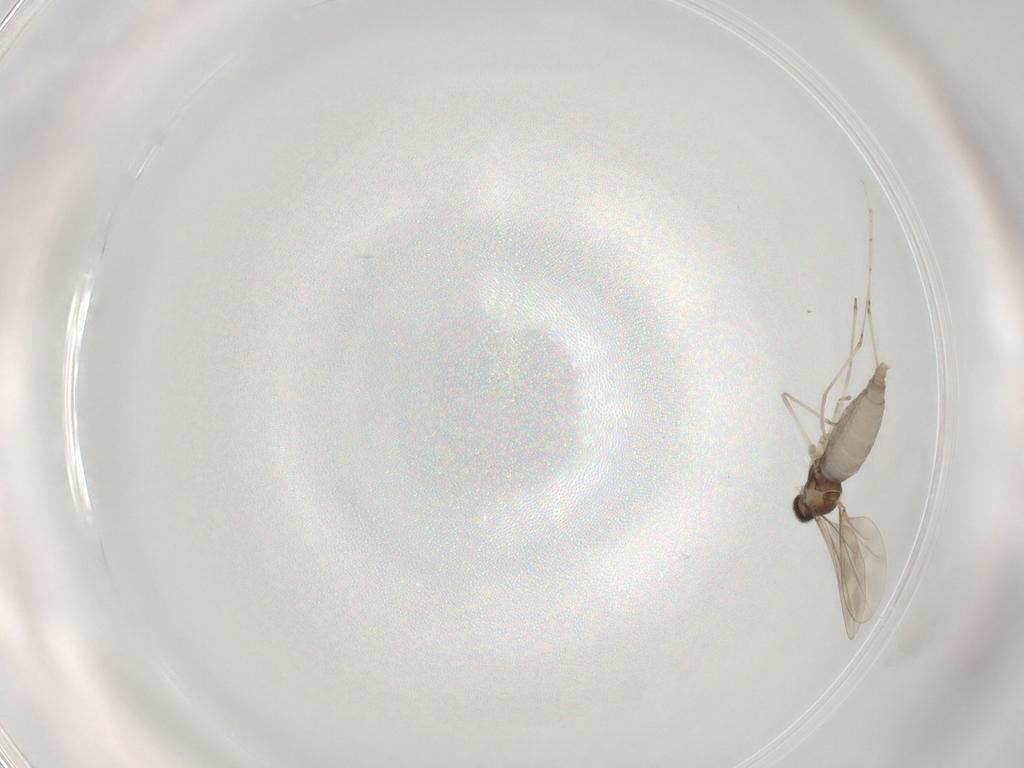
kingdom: Animalia
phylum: Arthropoda
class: Insecta
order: Diptera
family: Cecidomyiidae
